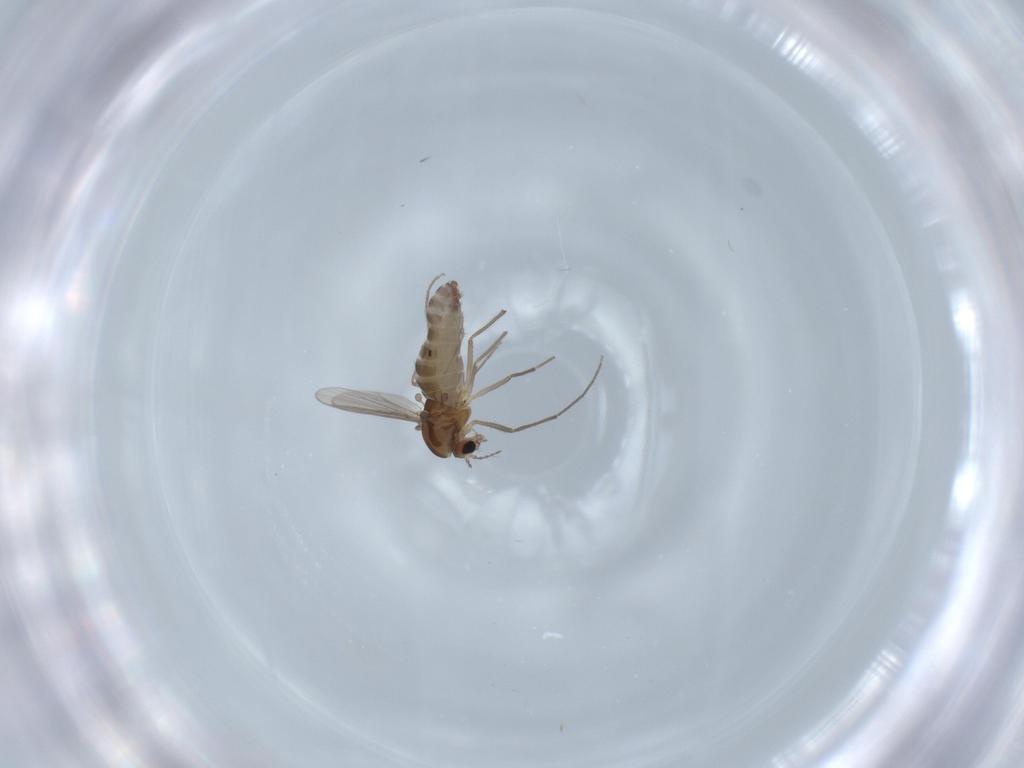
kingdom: Animalia
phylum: Arthropoda
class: Insecta
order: Diptera
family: Chironomidae
